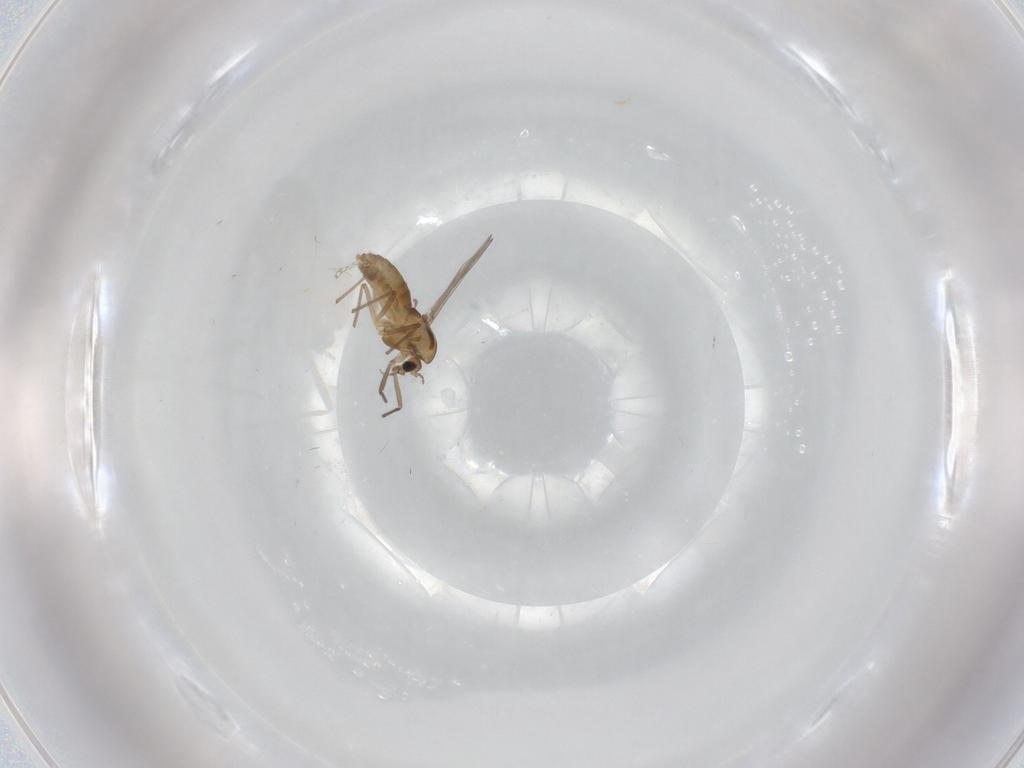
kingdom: Animalia
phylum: Arthropoda
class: Insecta
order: Diptera
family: Chironomidae
